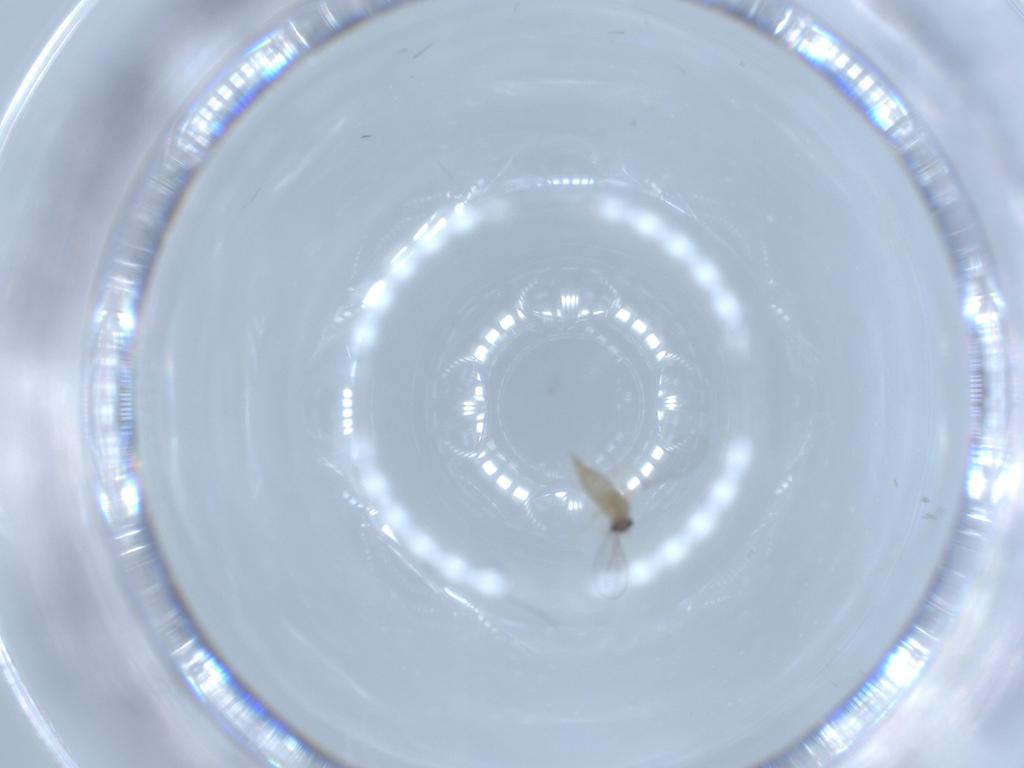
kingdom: Animalia
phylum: Arthropoda
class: Insecta
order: Diptera
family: Cecidomyiidae
